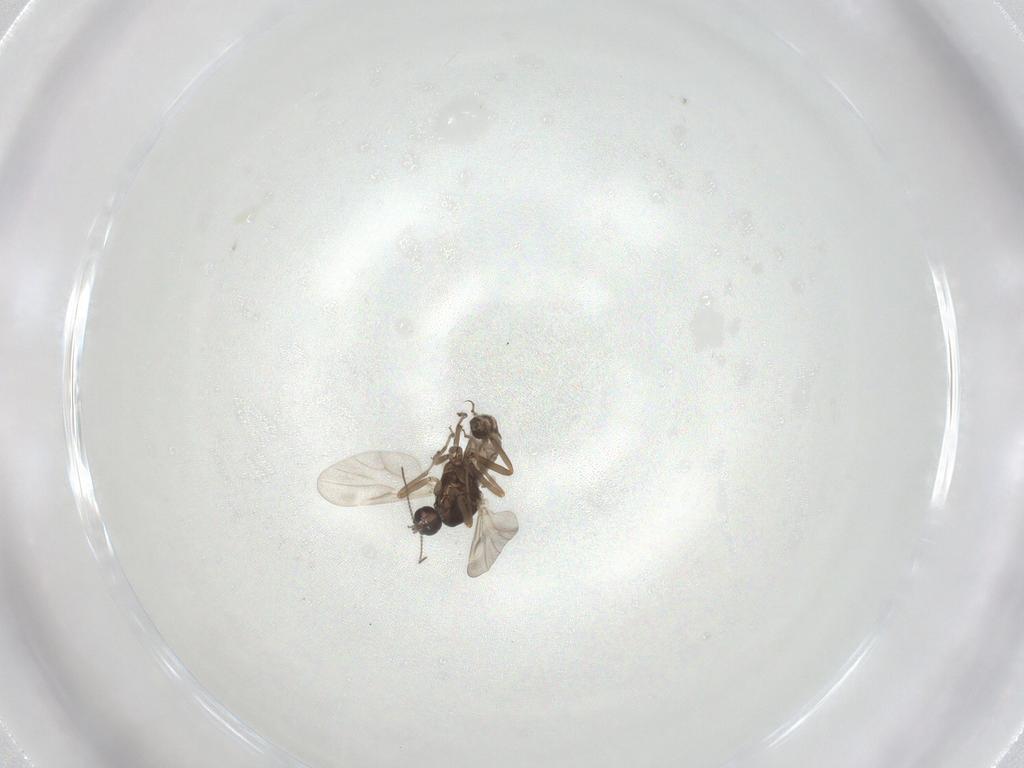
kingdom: Animalia
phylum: Arthropoda
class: Insecta
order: Diptera
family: Ceratopogonidae
